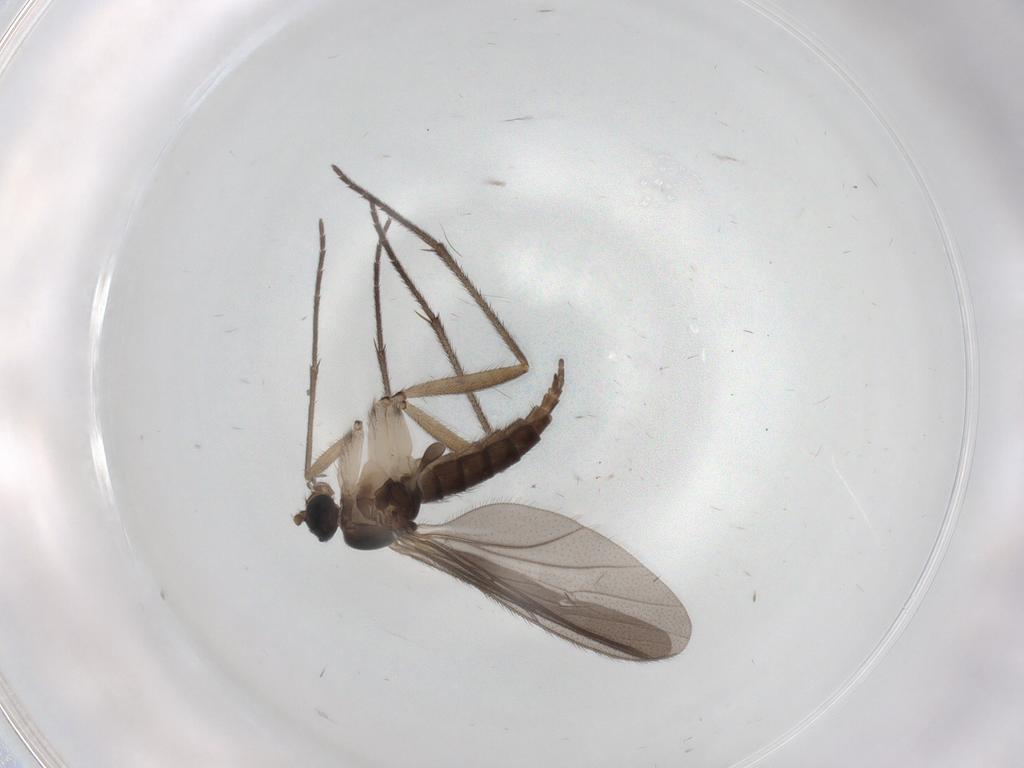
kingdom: Animalia
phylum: Arthropoda
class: Insecta
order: Diptera
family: Sciaridae
